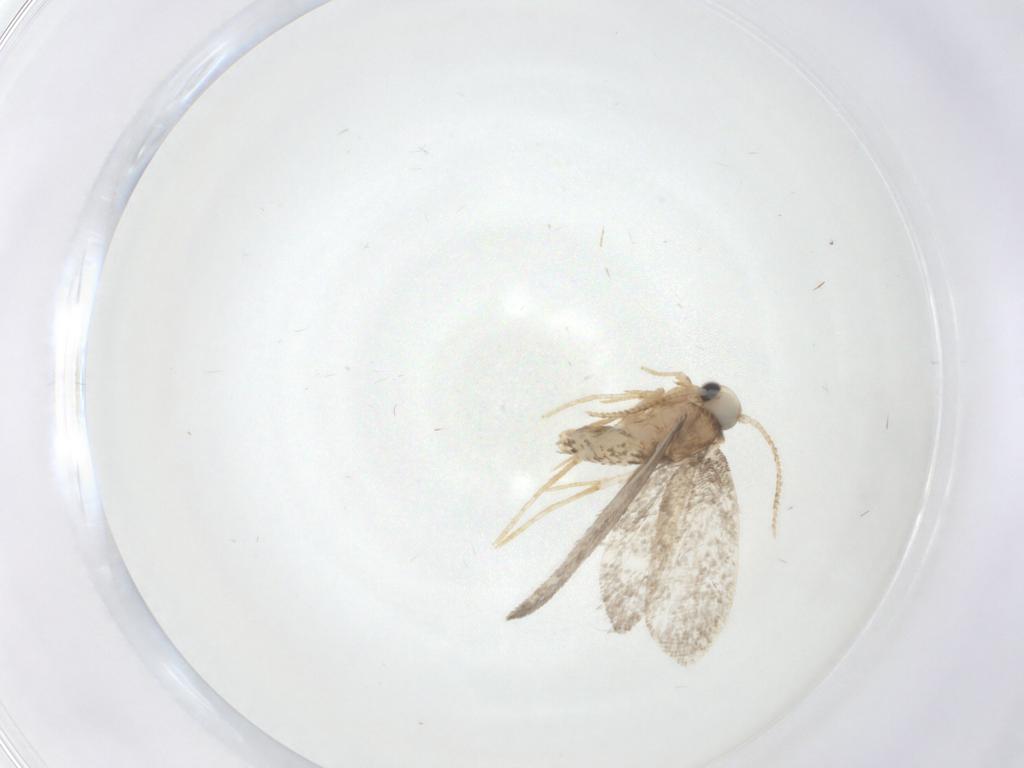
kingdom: Animalia
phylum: Arthropoda
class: Insecta
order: Lepidoptera
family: Psychidae
